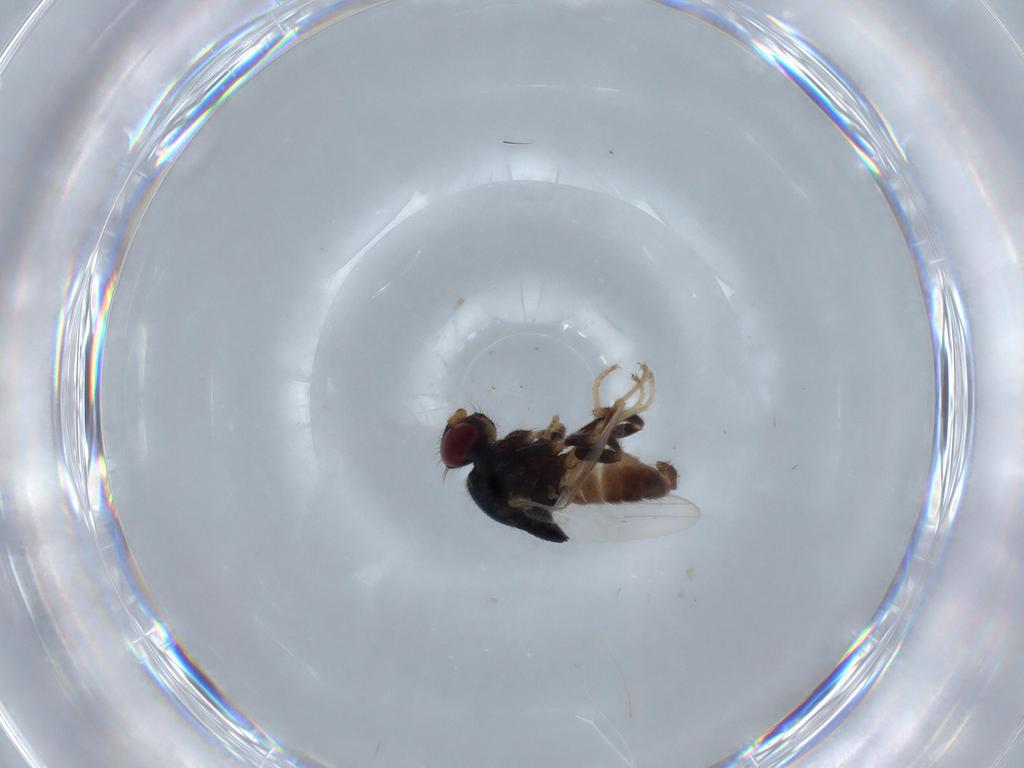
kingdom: Animalia
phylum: Arthropoda
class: Insecta
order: Diptera
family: Chloropidae
